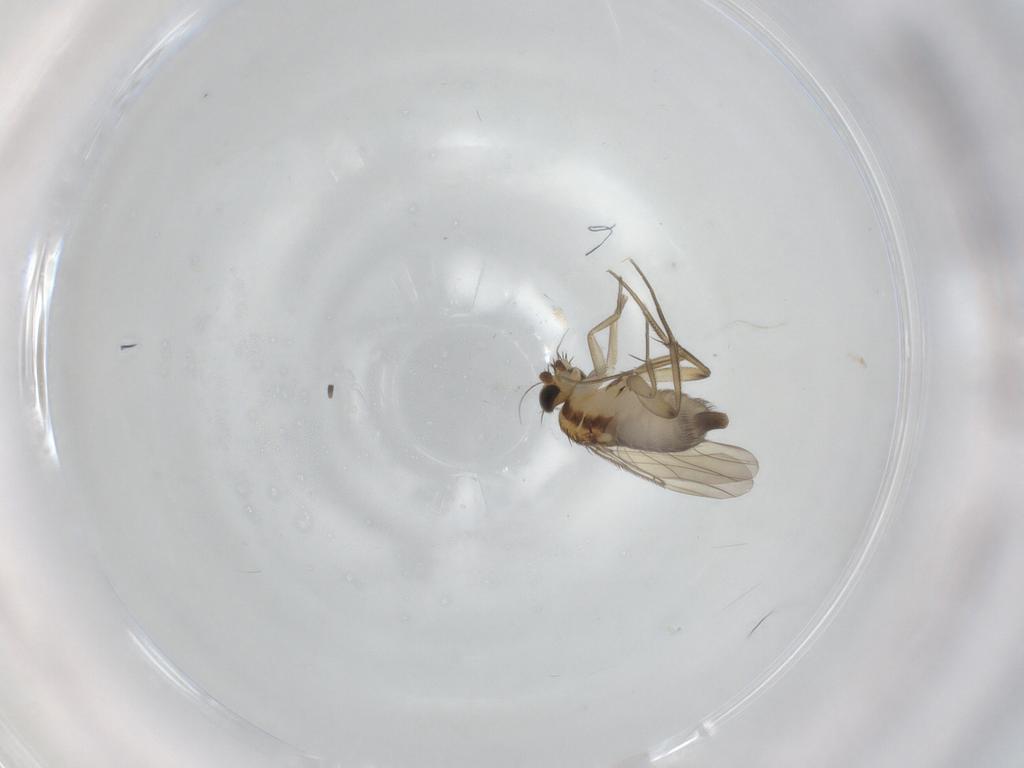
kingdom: Animalia
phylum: Arthropoda
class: Insecta
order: Diptera
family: Phoridae
